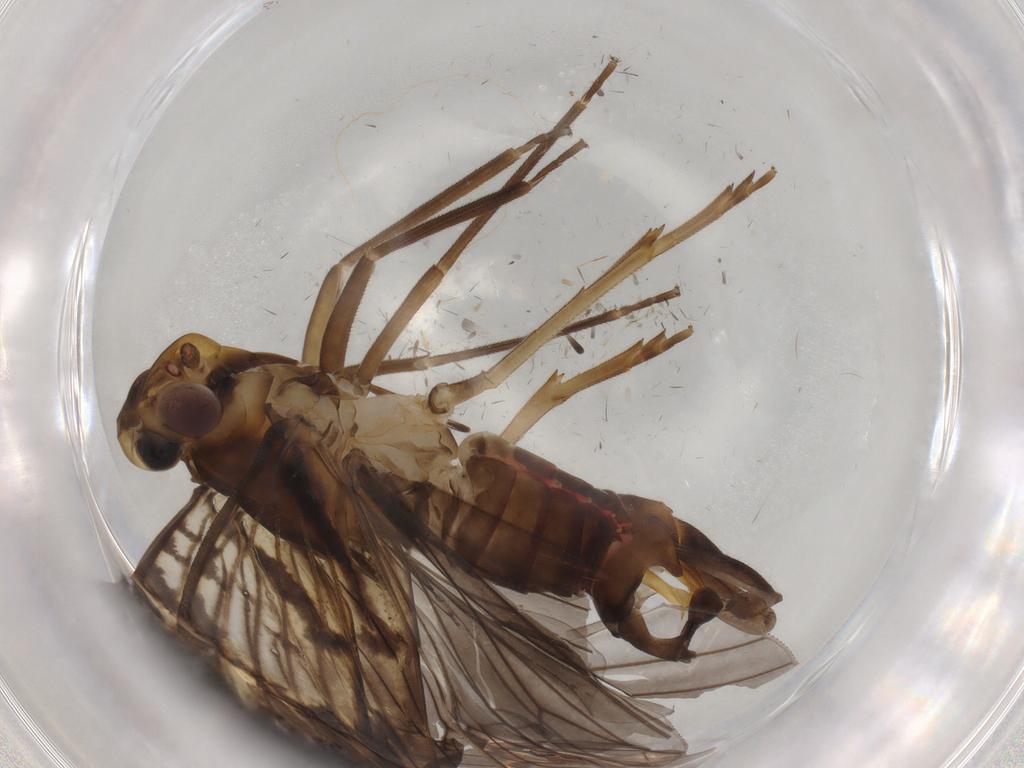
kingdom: Animalia
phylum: Arthropoda
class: Insecta
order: Hemiptera
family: Cixiidae
